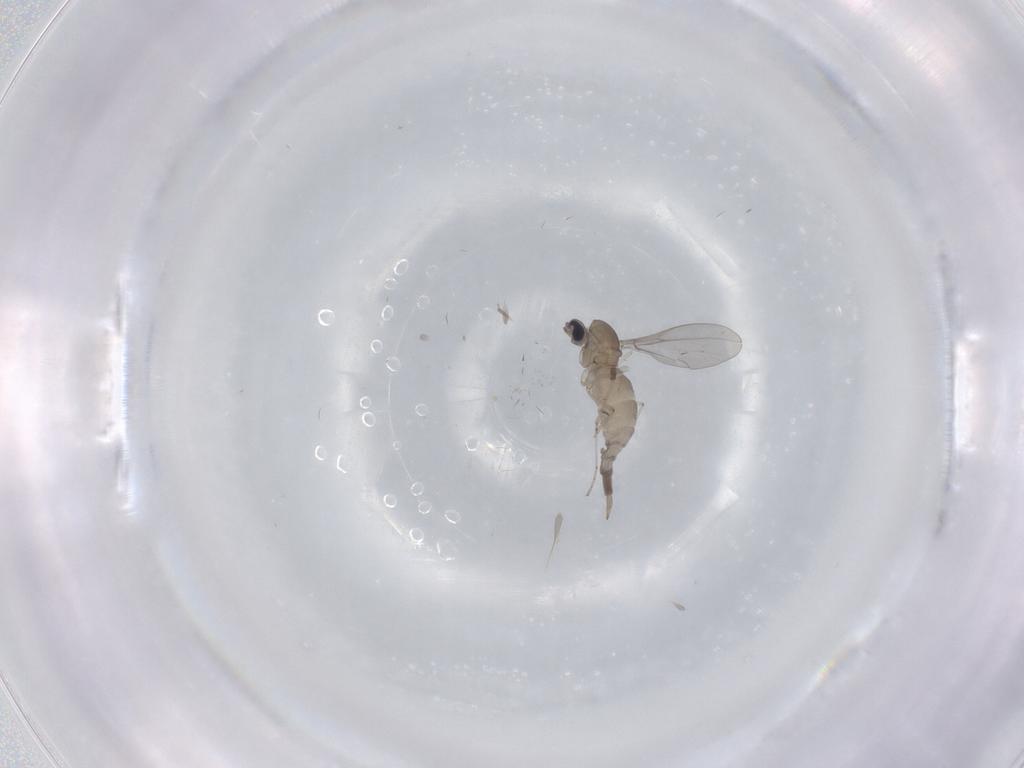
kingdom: Animalia
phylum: Arthropoda
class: Insecta
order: Diptera
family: Cecidomyiidae
